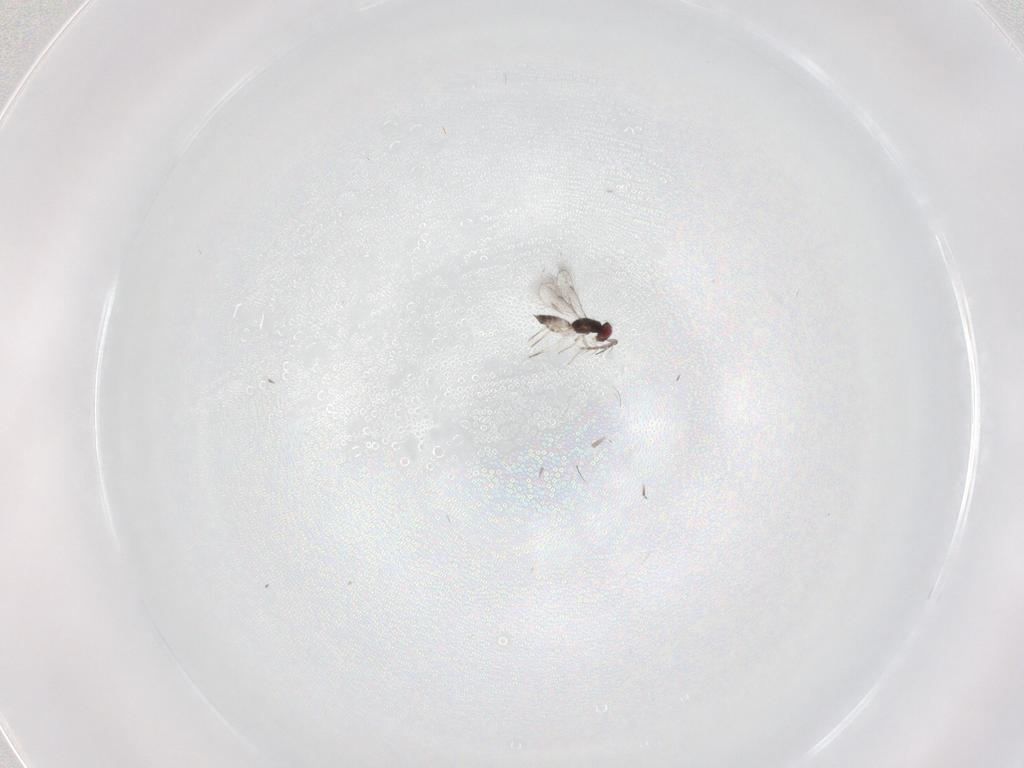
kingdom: Animalia
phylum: Arthropoda
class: Insecta
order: Hymenoptera
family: Eulophidae
